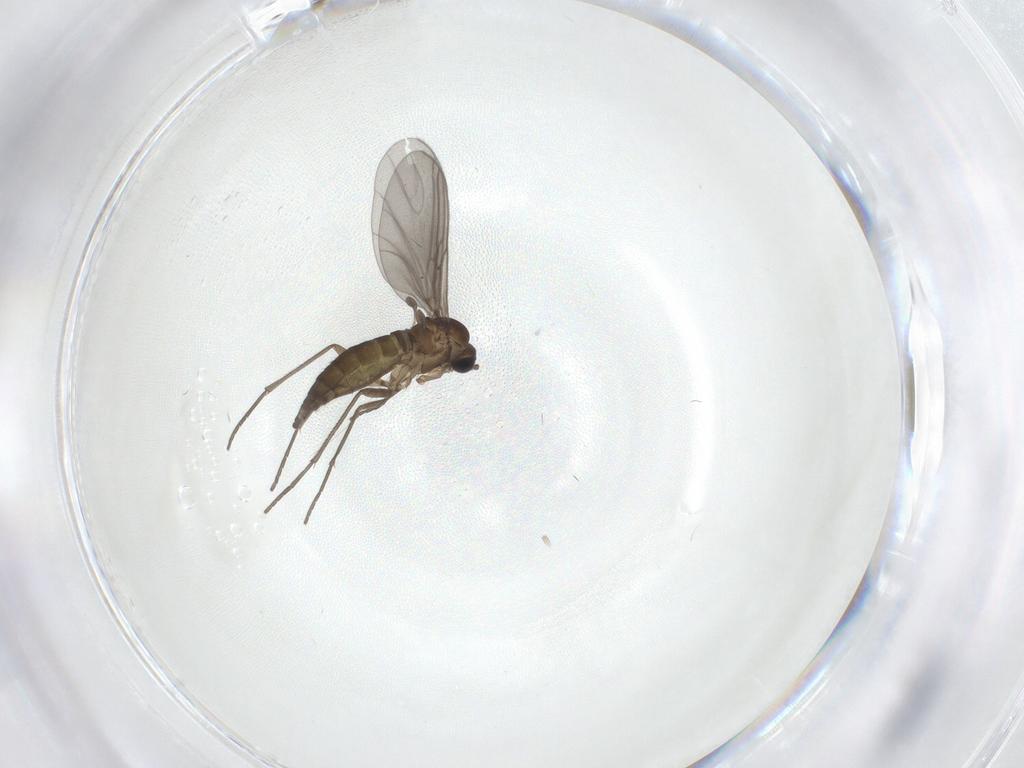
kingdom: Animalia
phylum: Arthropoda
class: Insecta
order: Diptera
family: Sciaridae
